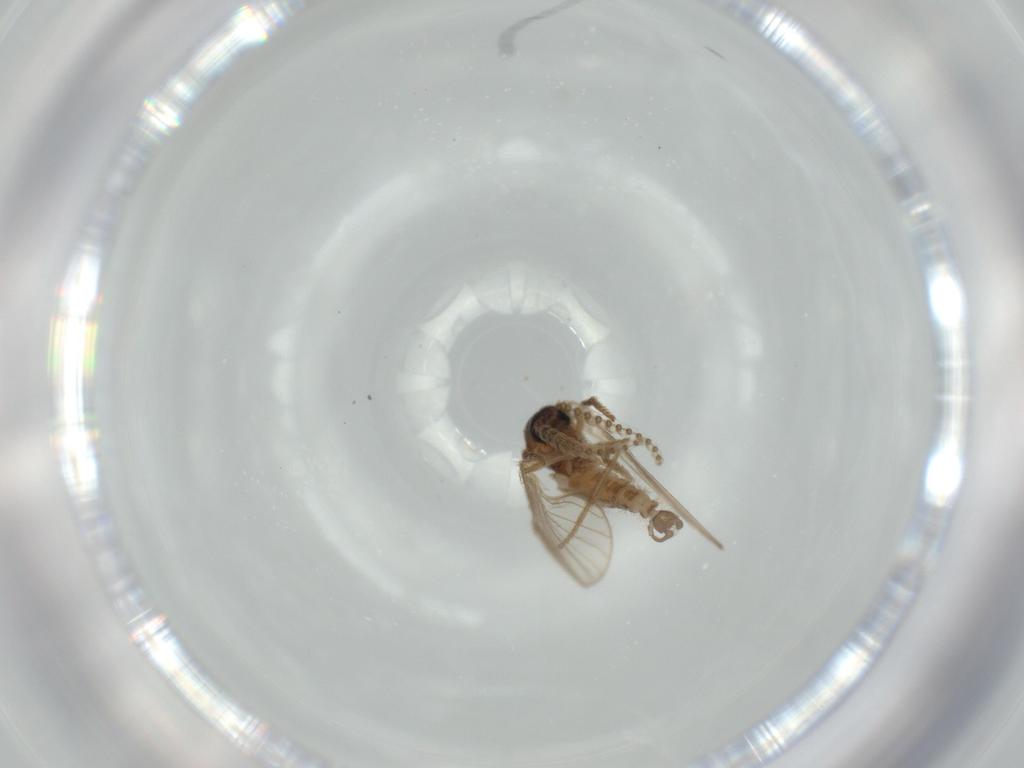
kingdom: Animalia
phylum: Arthropoda
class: Insecta
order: Diptera
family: Psychodidae
